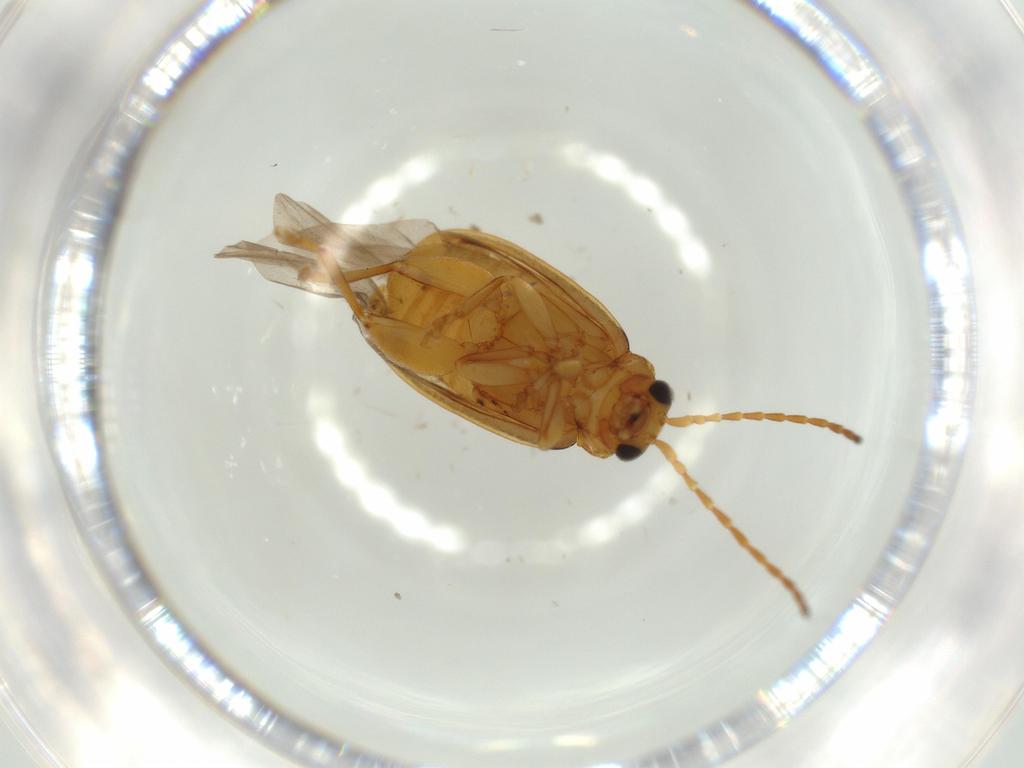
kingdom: Animalia
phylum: Arthropoda
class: Insecta
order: Coleoptera
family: Chrysomelidae
